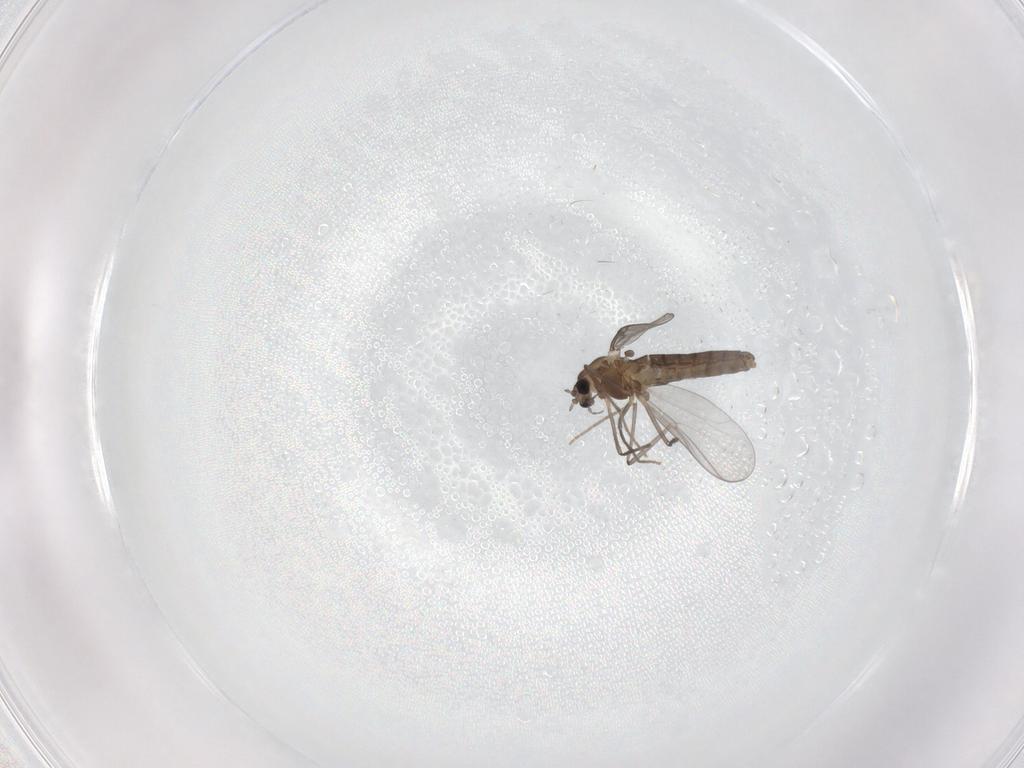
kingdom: Animalia
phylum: Arthropoda
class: Insecta
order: Diptera
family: Chironomidae
